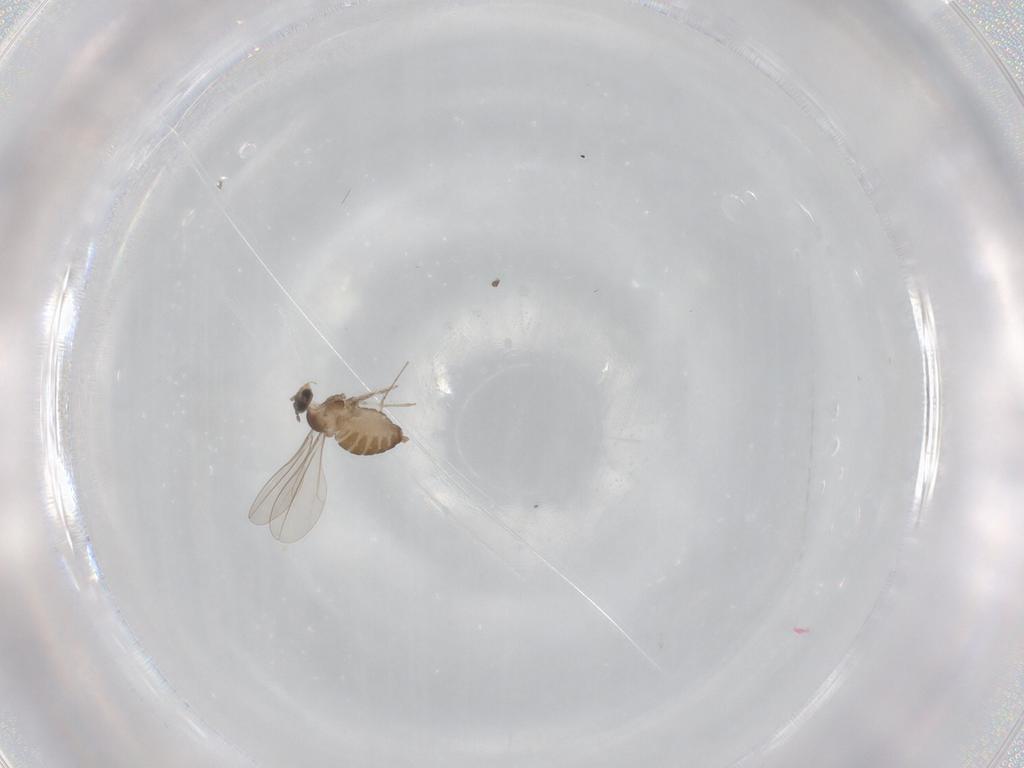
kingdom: Animalia
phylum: Arthropoda
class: Insecta
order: Diptera
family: Cecidomyiidae
